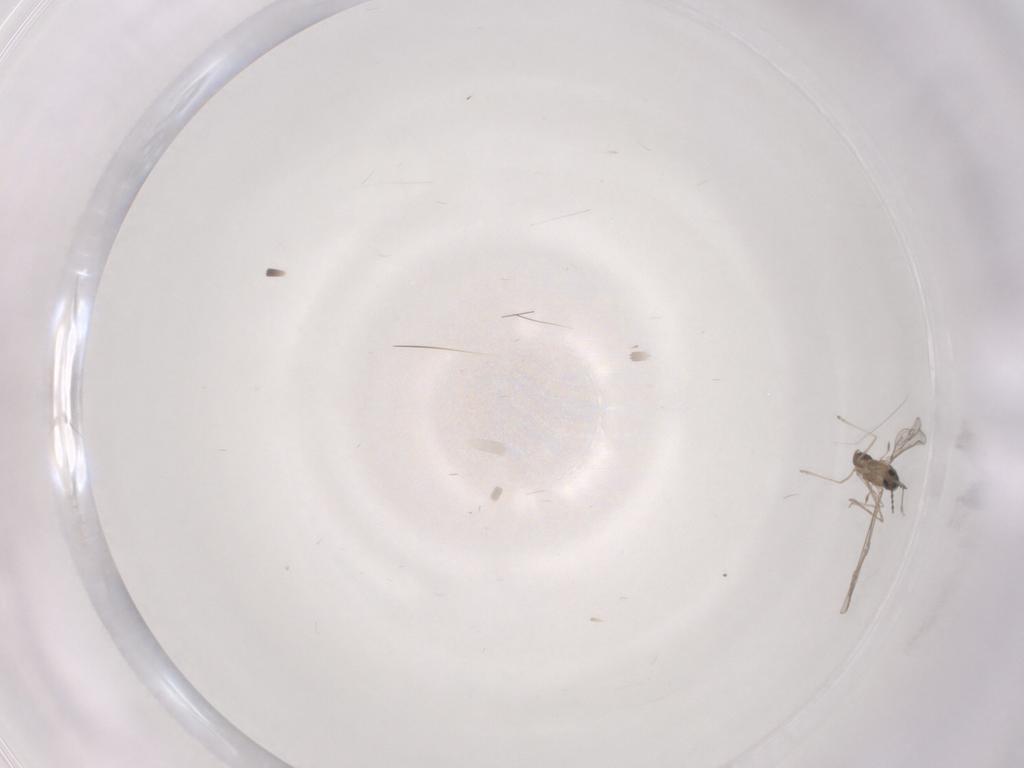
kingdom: Animalia
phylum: Arthropoda
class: Insecta
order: Diptera
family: Cecidomyiidae
